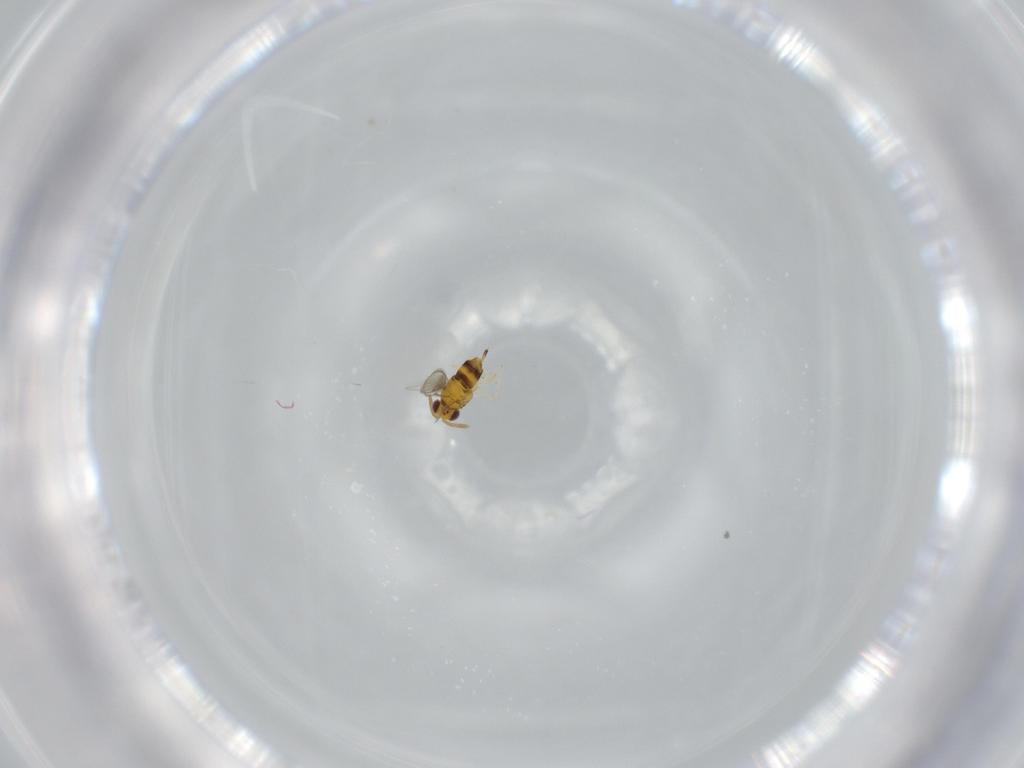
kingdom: Animalia
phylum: Arthropoda
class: Insecta
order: Hymenoptera
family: Aphelinidae
